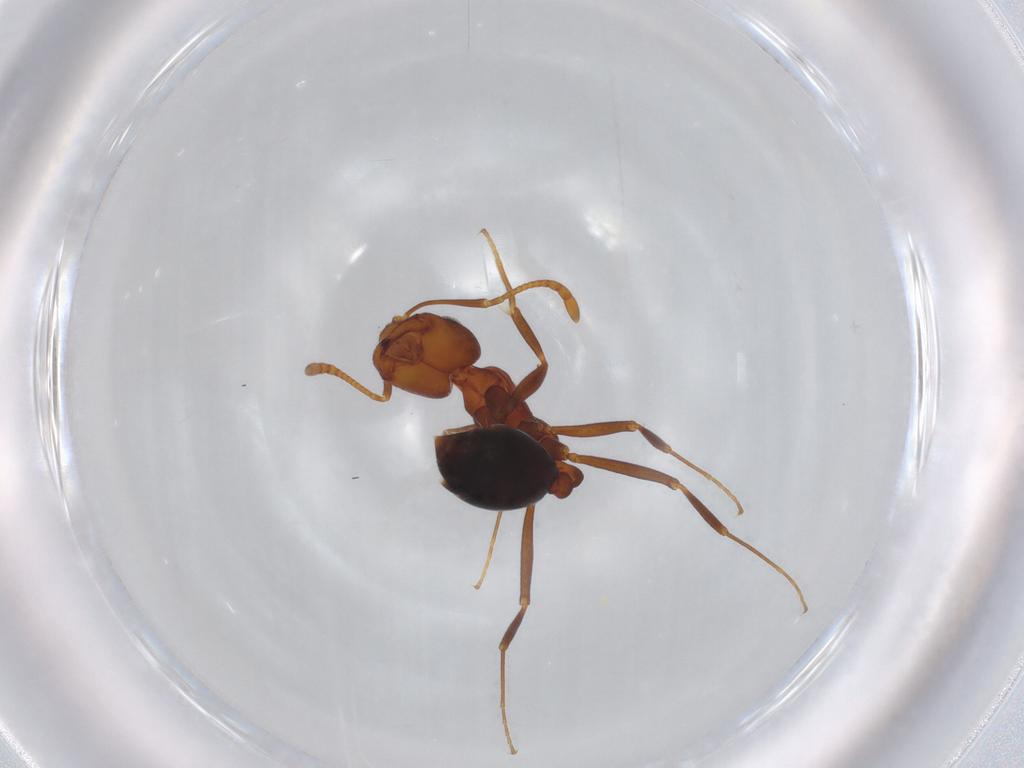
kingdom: Animalia
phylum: Arthropoda
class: Insecta
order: Hymenoptera
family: Formicidae
